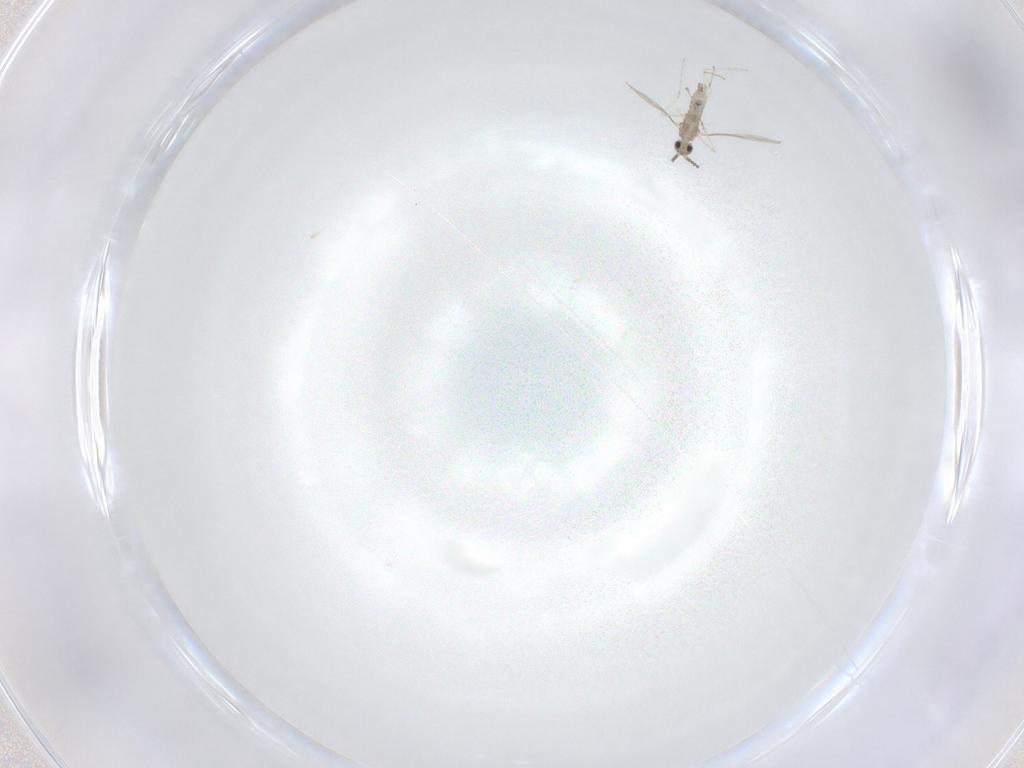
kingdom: Animalia
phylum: Arthropoda
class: Insecta
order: Diptera
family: Cecidomyiidae
